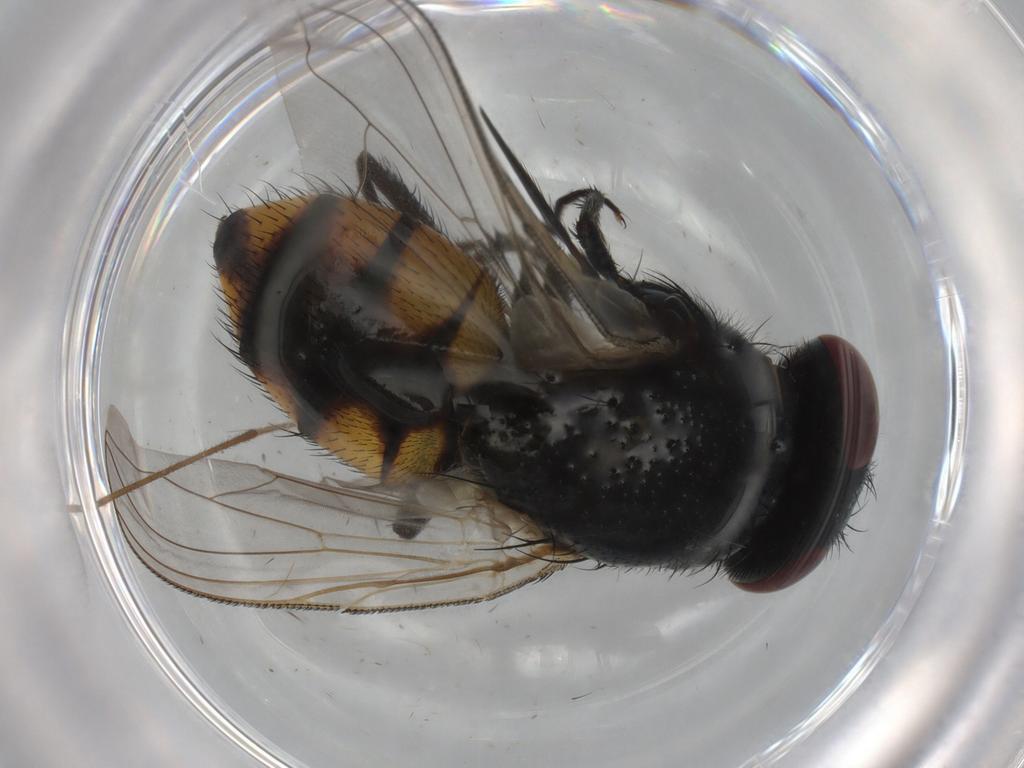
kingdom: Animalia
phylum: Arthropoda
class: Insecta
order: Diptera
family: Limoniidae
